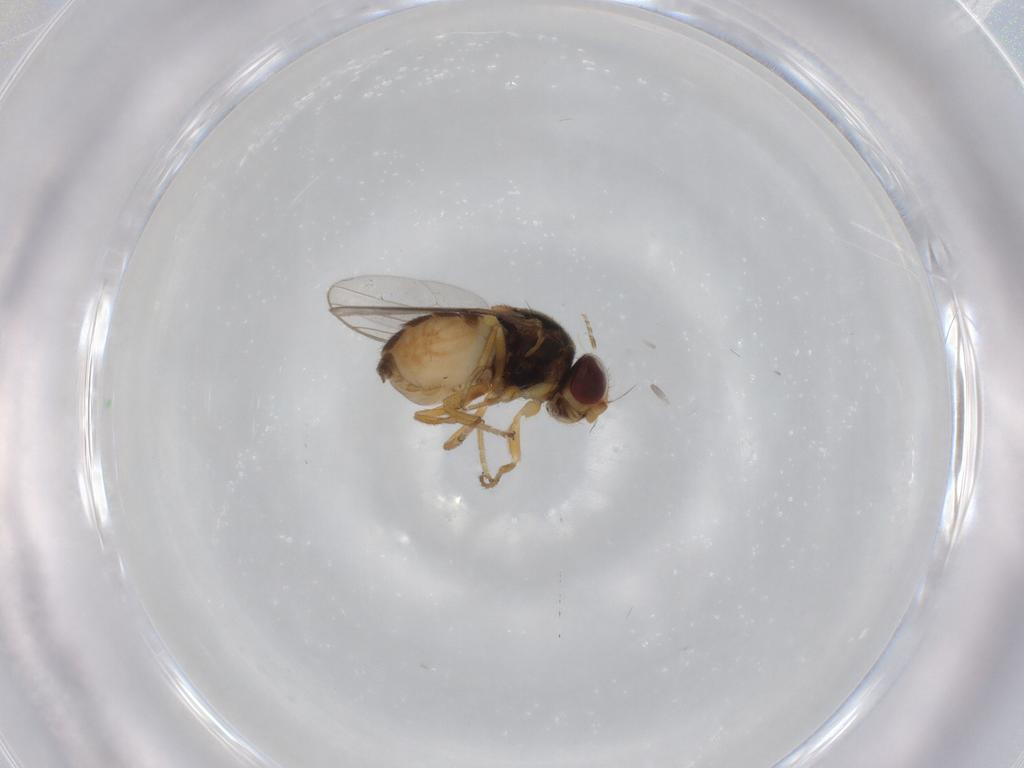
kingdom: Animalia
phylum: Arthropoda
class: Insecta
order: Diptera
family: Chloropidae
